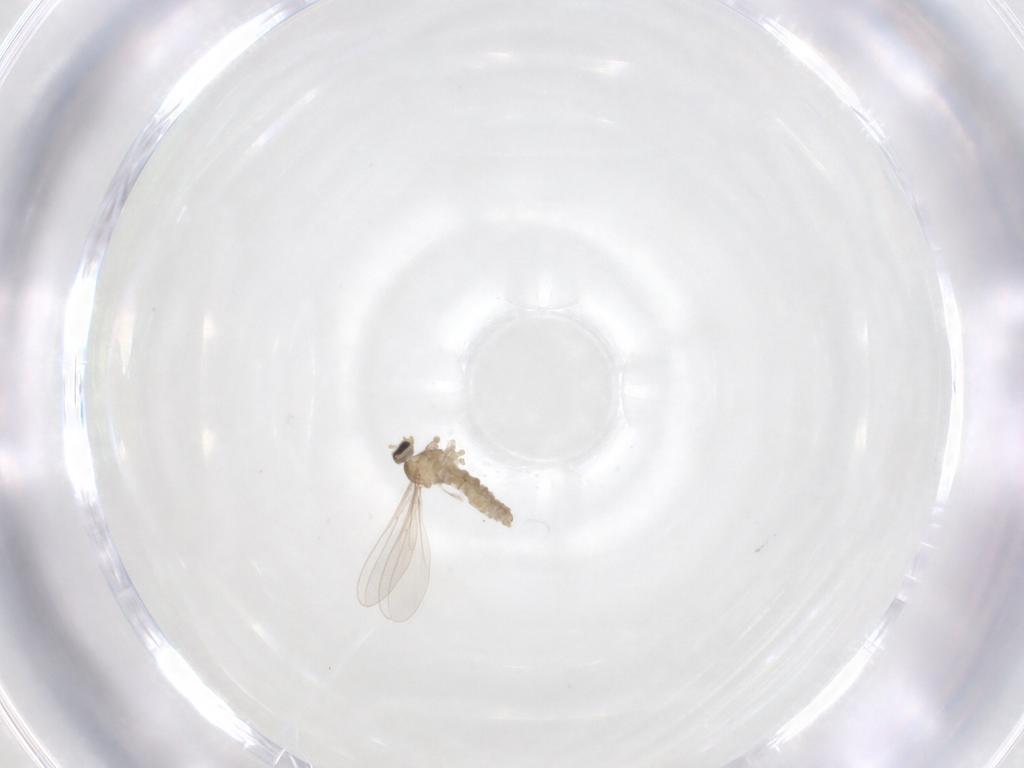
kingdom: Animalia
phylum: Arthropoda
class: Insecta
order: Diptera
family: Cecidomyiidae
